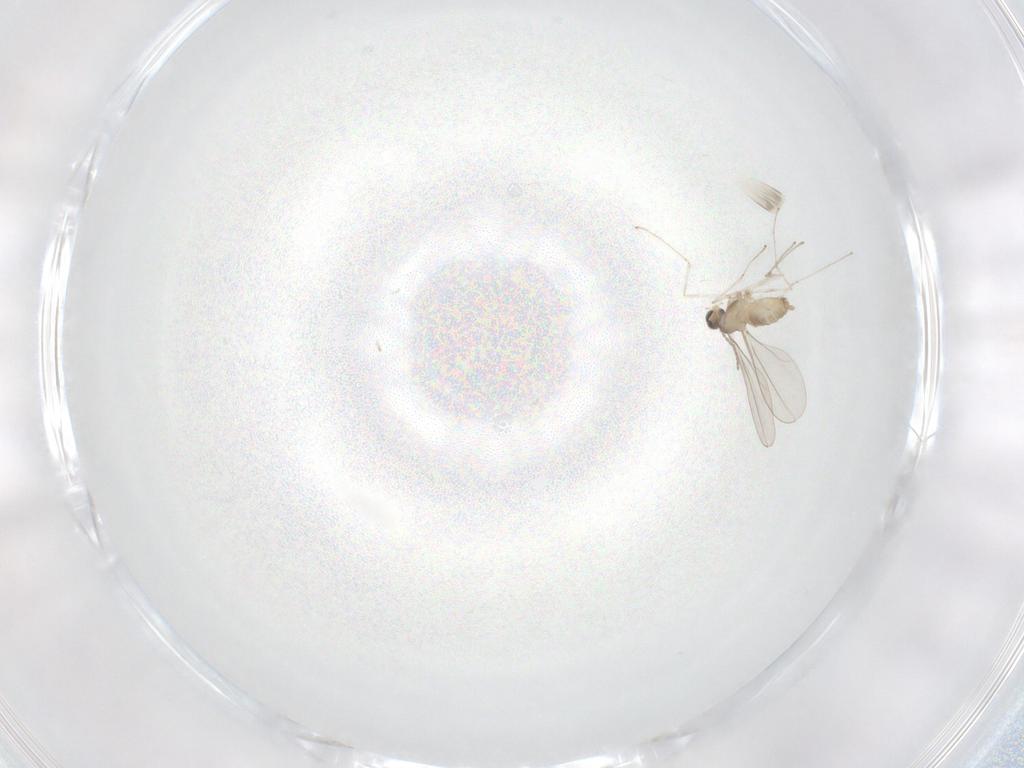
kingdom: Animalia
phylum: Arthropoda
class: Insecta
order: Diptera
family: Cecidomyiidae
